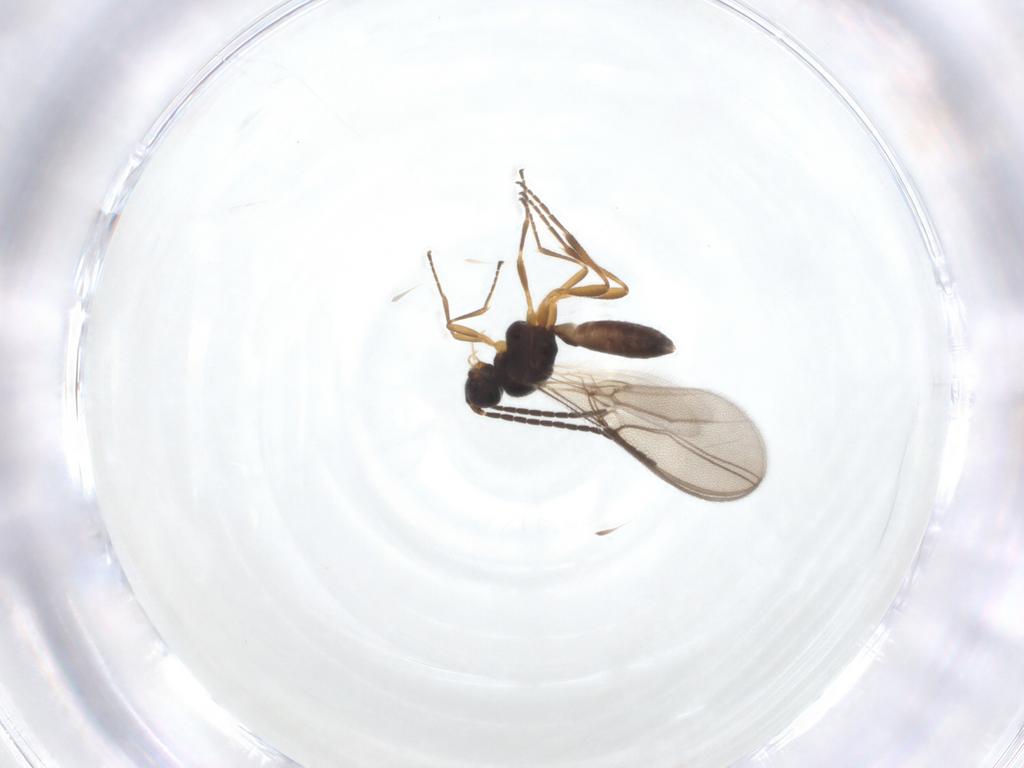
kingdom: Animalia
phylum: Arthropoda
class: Insecta
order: Hymenoptera
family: Braconidae
